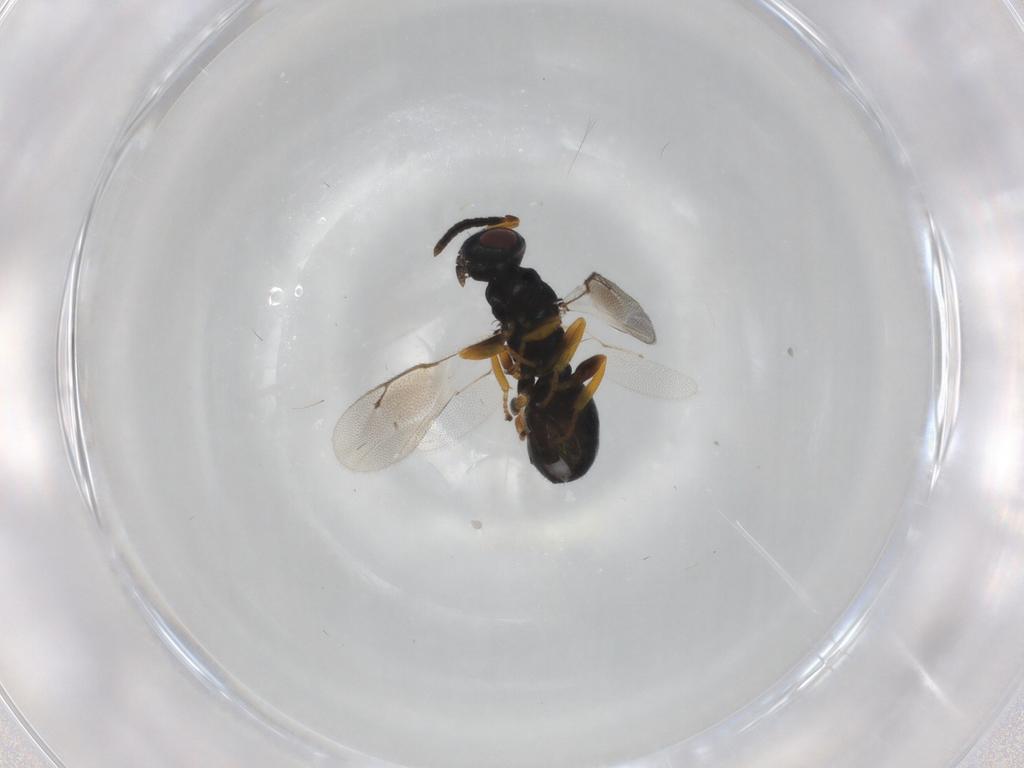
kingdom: Animalia
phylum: Arthropoda
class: Insecta
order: Hymenoptera
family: Pteromalidae
